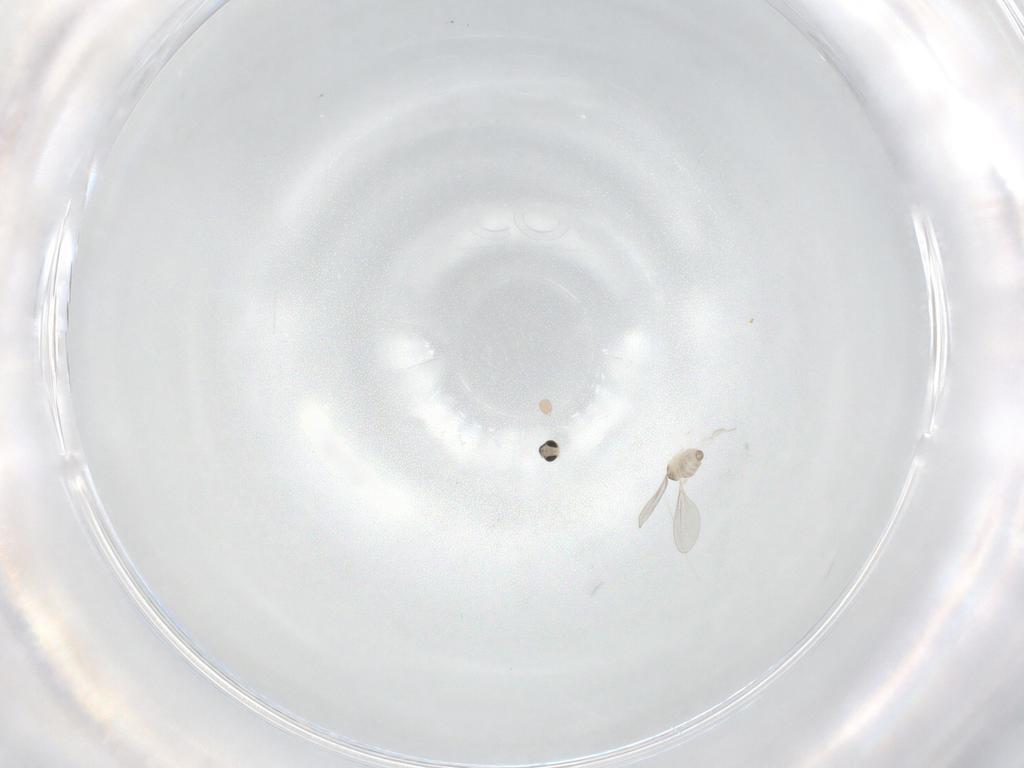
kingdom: Animalia
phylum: Arthropoda
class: Insecta
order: Diptera
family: Cecidomyiidae
